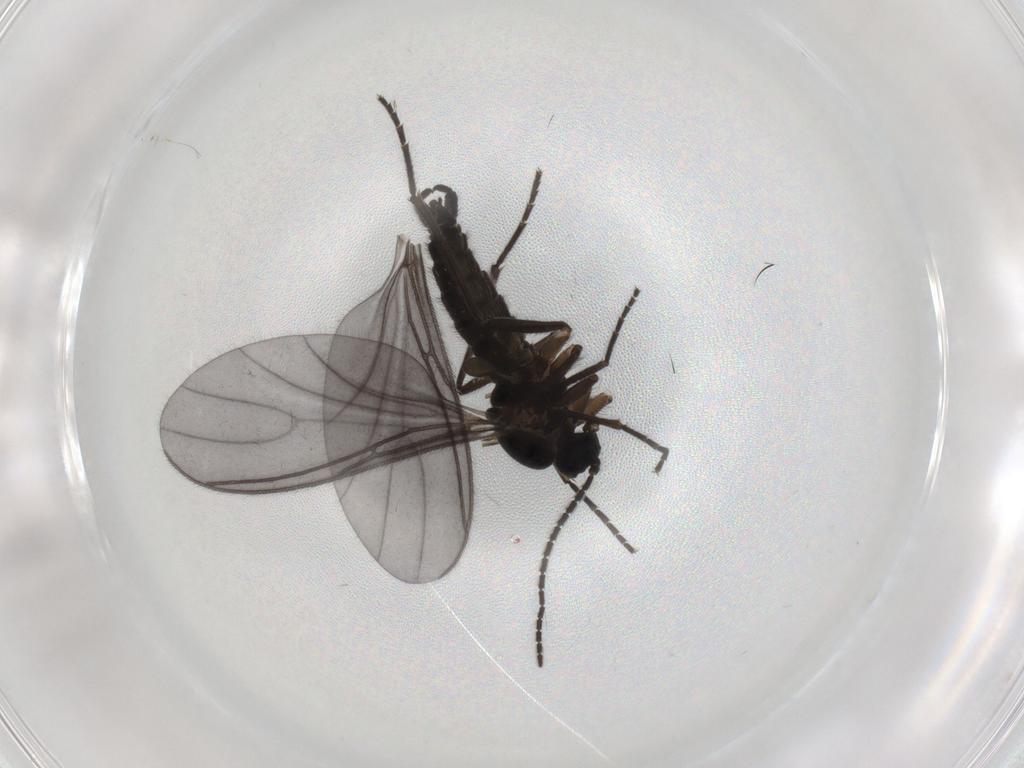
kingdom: Animalia
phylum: Arthropoda
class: Insecta
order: Diptera
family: Sciaridae
